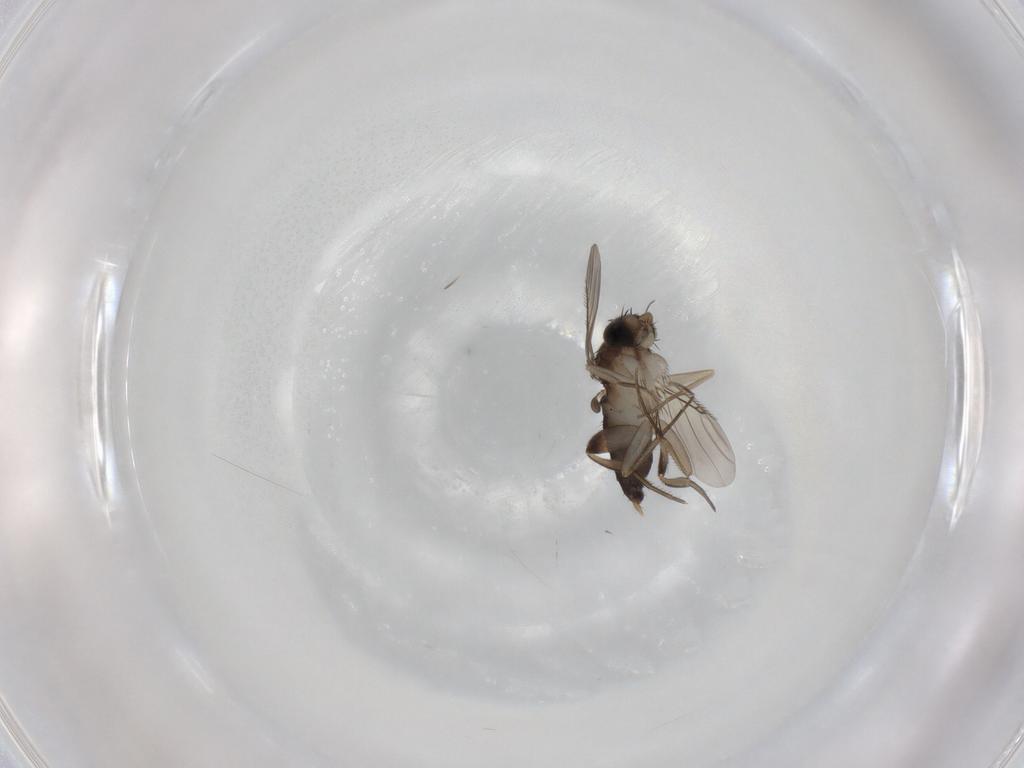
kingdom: Animalia
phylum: Arthropoda
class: Insecta
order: Diptera
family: Phoridae
